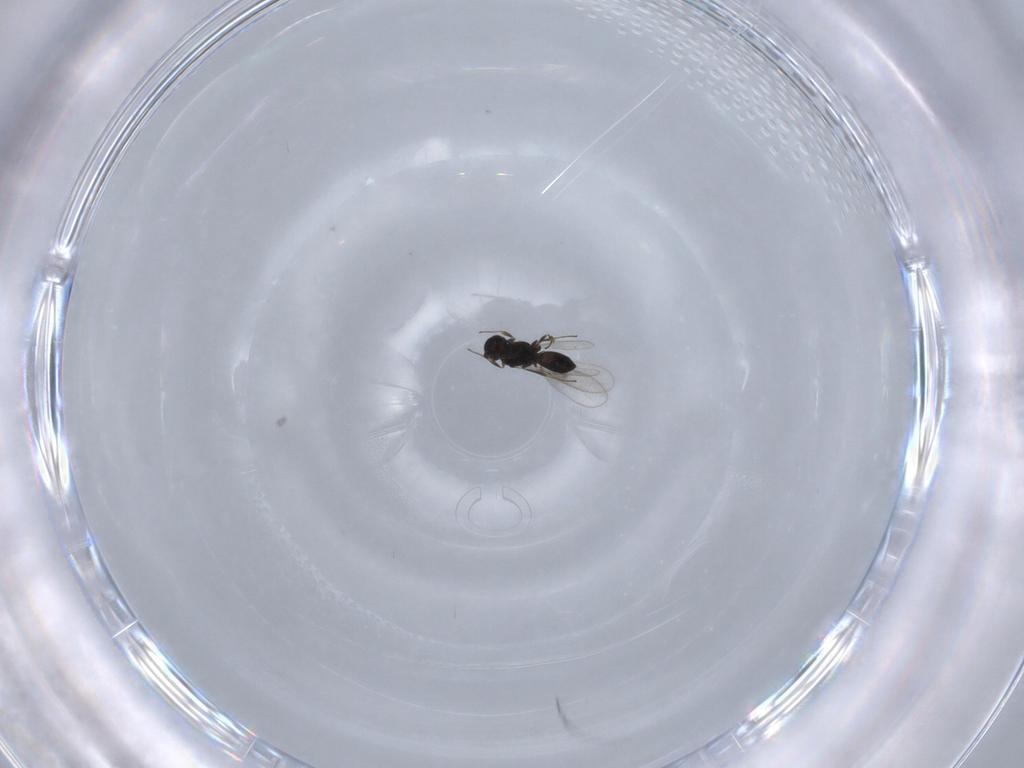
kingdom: Animalia
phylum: Arthropoda
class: Insecta
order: Hymenoptera
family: Scelionidae
